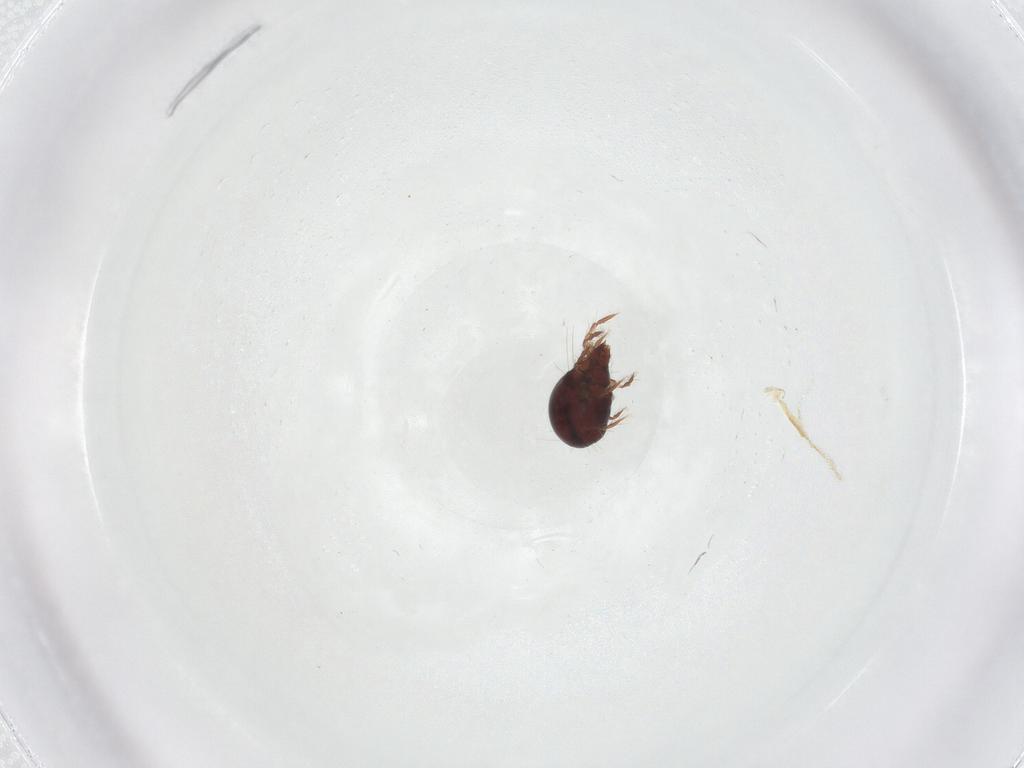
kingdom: Animalia
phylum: Arthropoda
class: Arachnida
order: Sarcoptiformes
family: Ceratoppiidae
